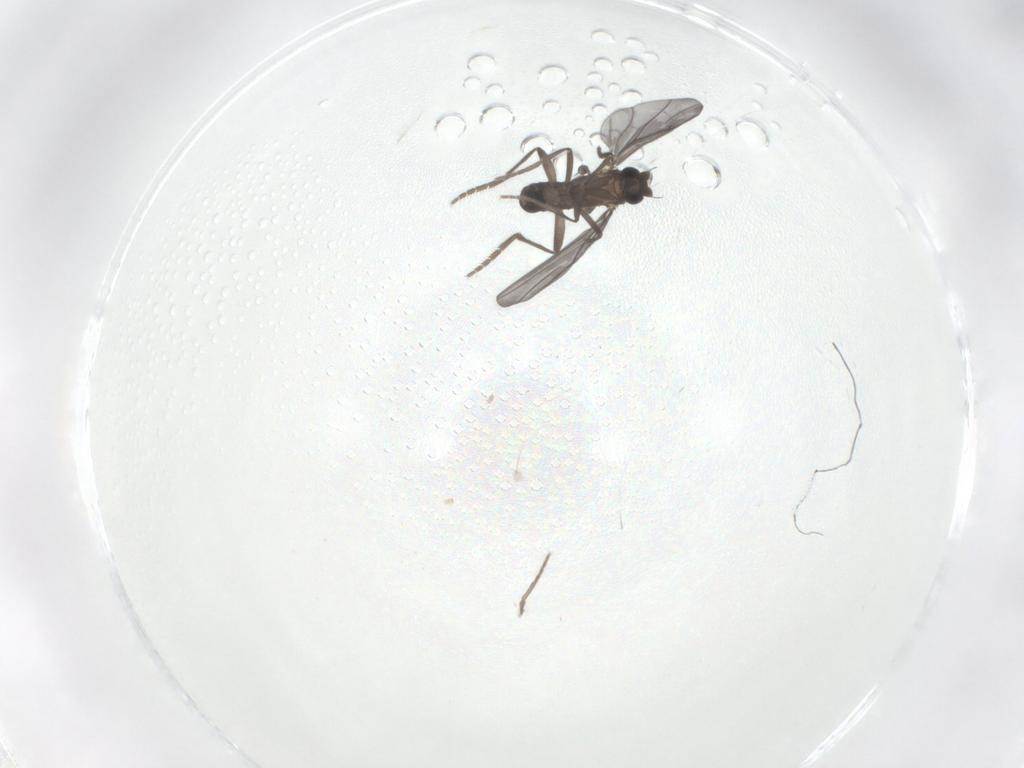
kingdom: Animalia
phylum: Arthropoda
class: Insecta
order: Diptera
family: Phoridae
